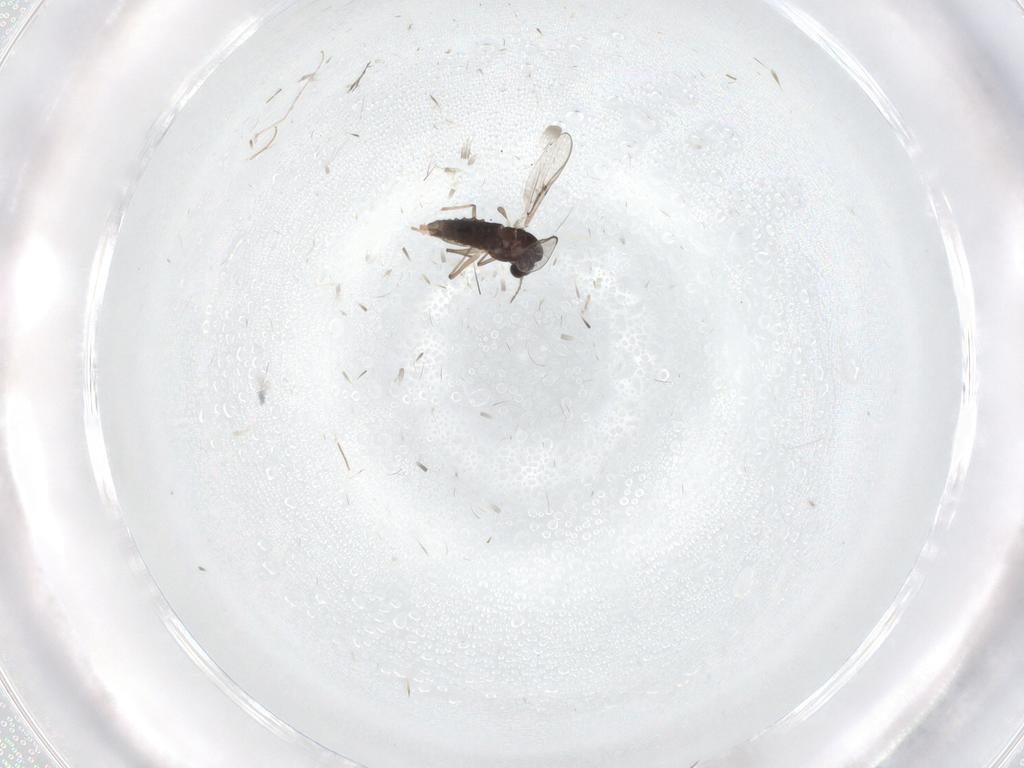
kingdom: Animalia
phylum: Arthropoda
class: Insecta
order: Diptera
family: Limoniidae
